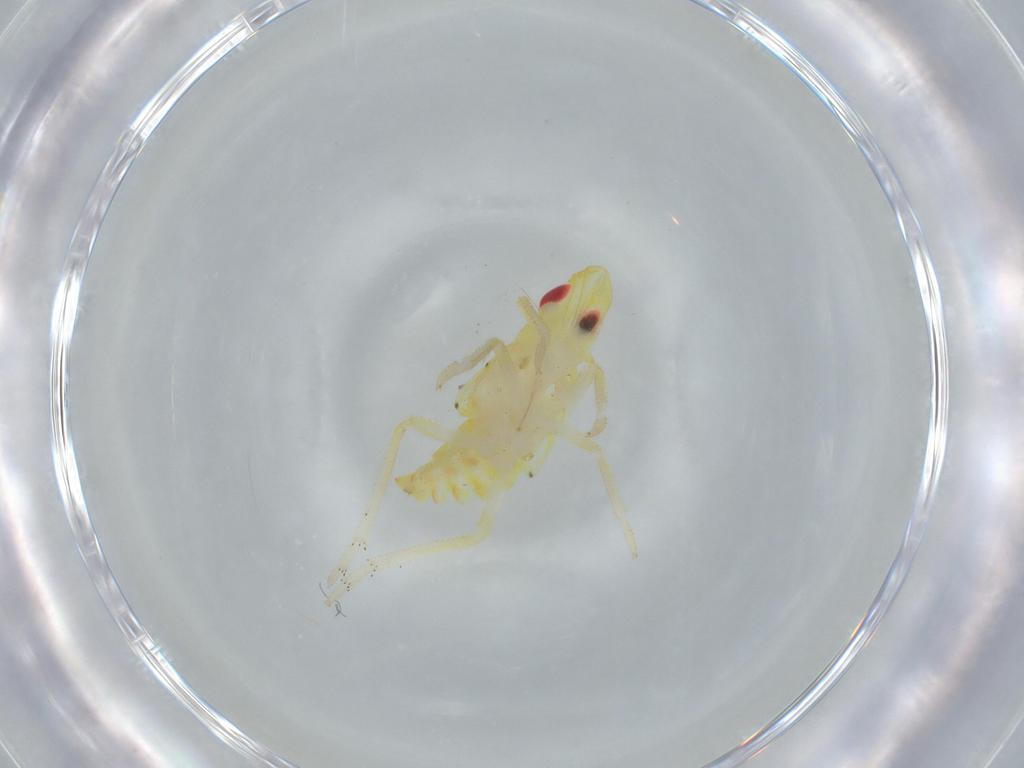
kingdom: Animalia
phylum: Arthropoda
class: Insecta
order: Hemiptera
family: Tropiduchidae
